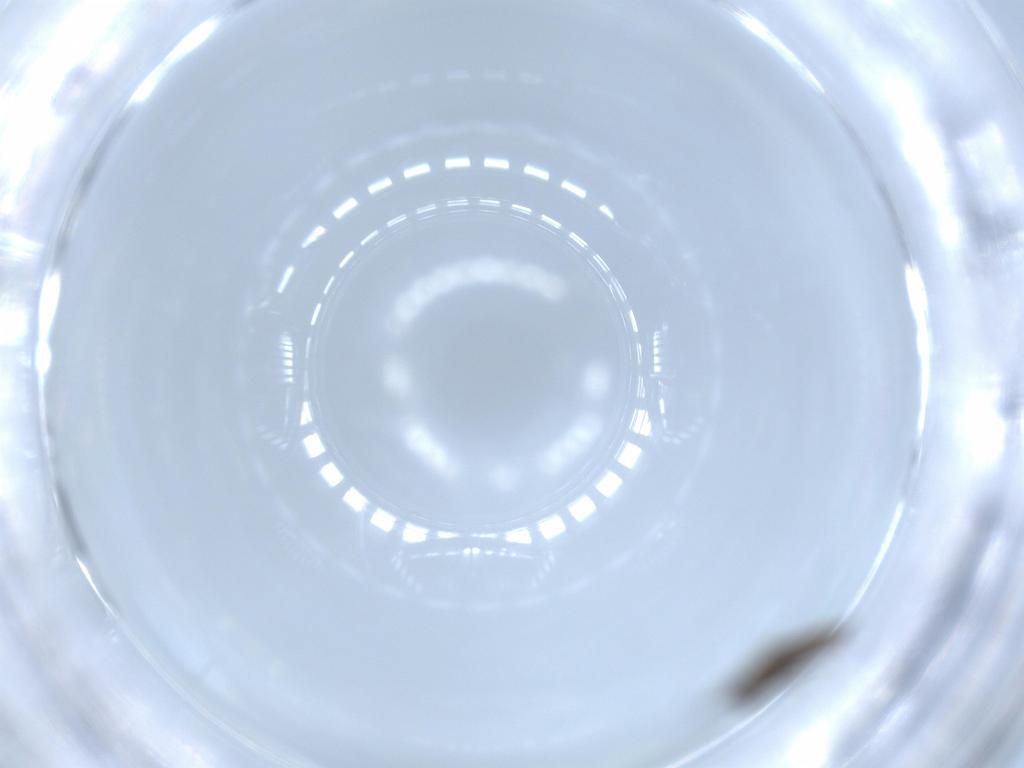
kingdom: Animalia
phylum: Arthropoda
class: Insecta
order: Thysanoptera
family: Phlaeothripidae
